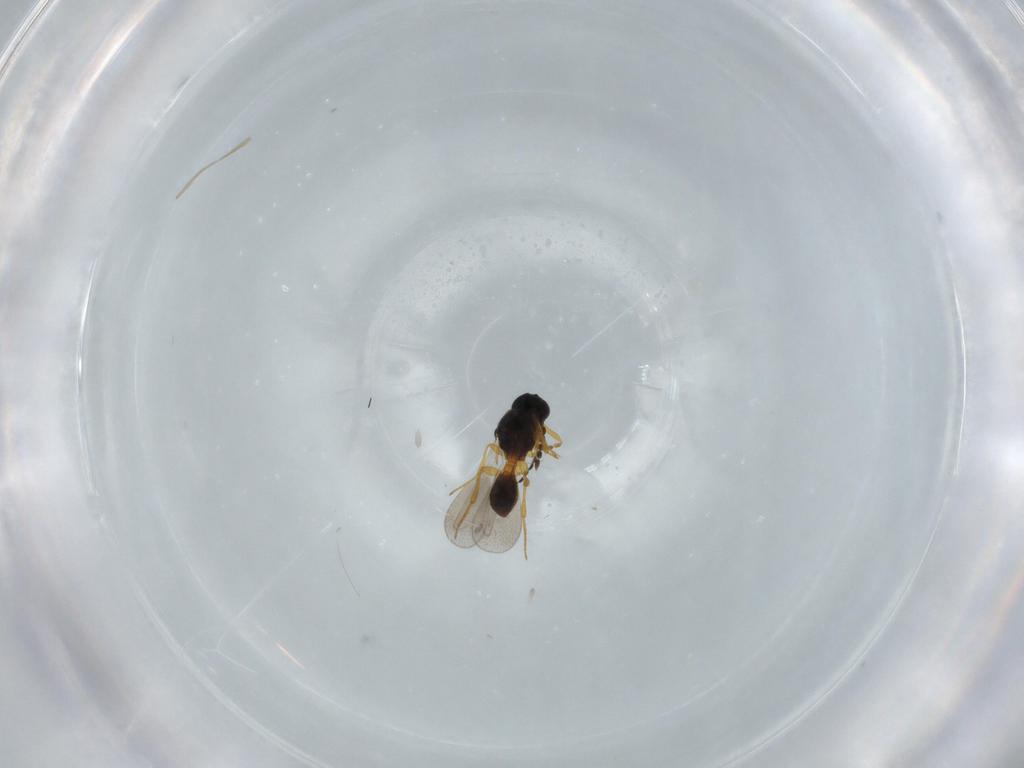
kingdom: Animalia
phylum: Arthropoda
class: Insecta
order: Hymenoptera
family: Platygastridae
